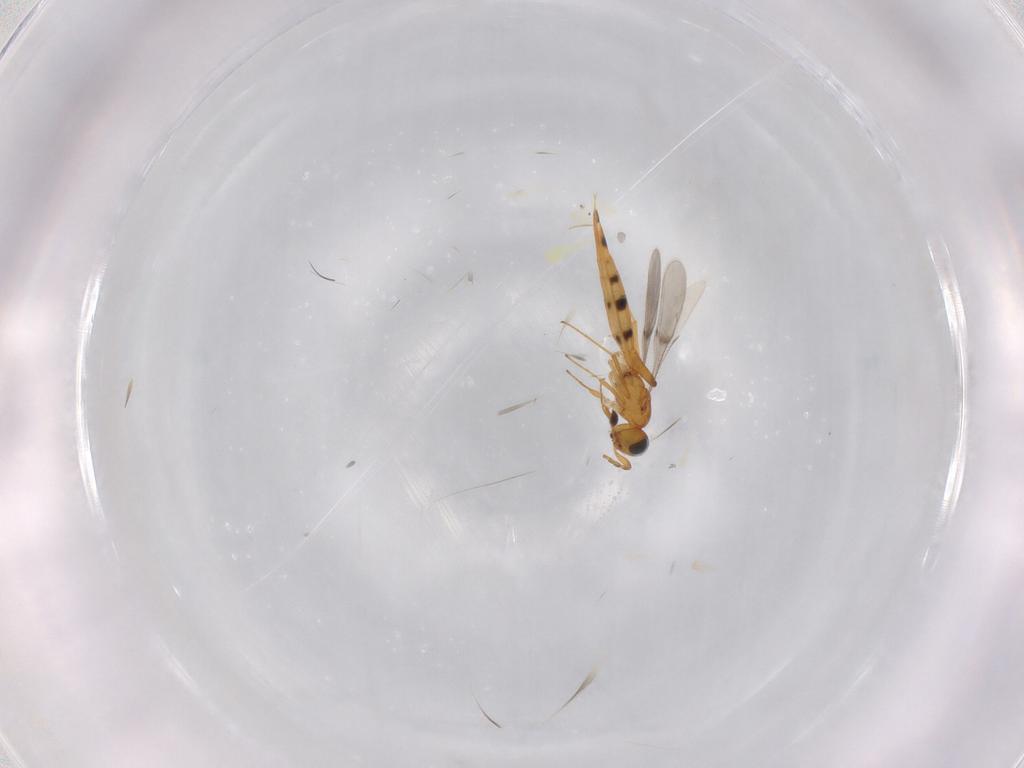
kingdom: Animalia
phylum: Arthropoda
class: Insecta
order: Hymenoptera
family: Scelionidae
